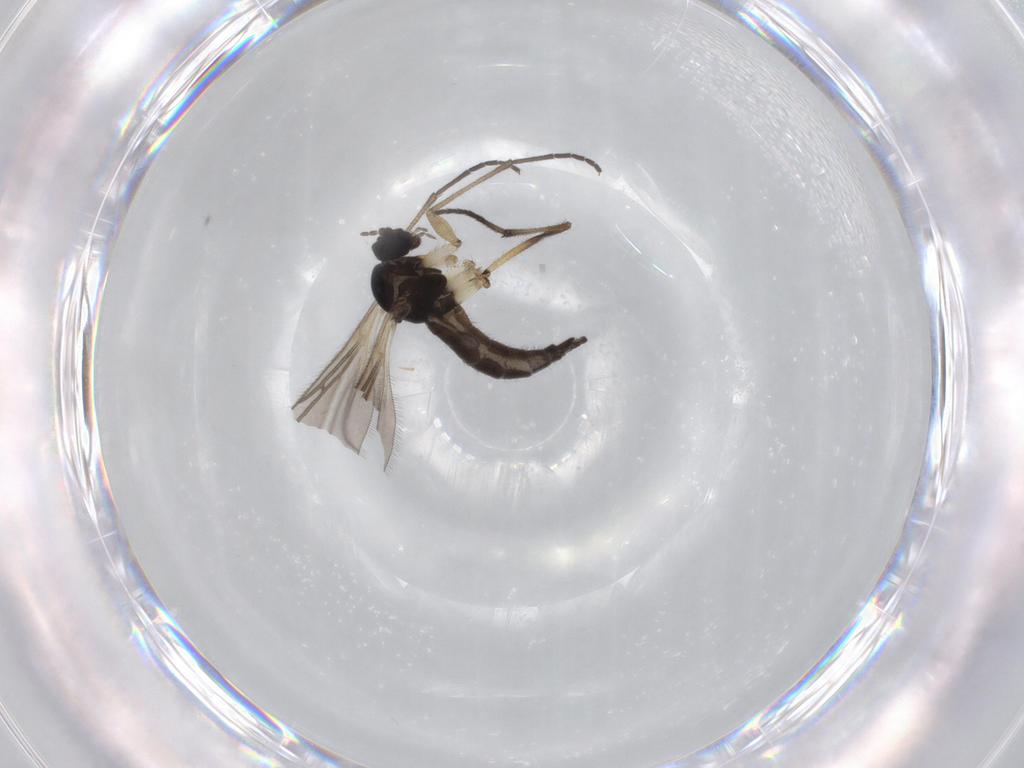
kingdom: Animalia
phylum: Arthropoda
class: Insecta
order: Diptera
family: Sciaridae
